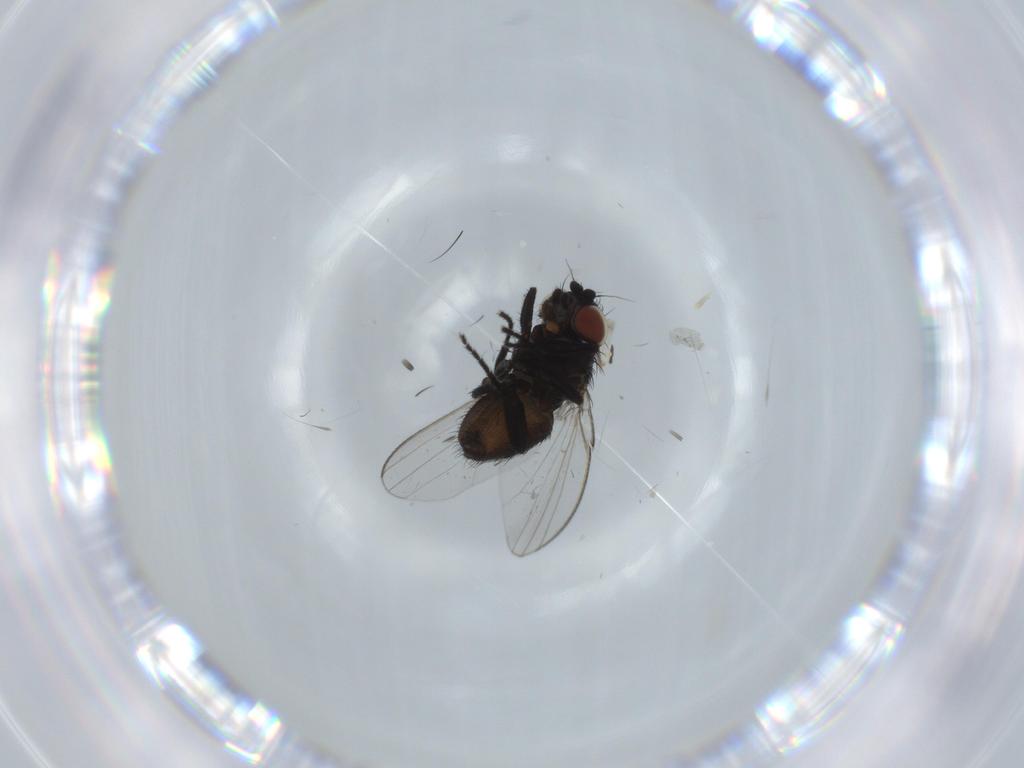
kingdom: Animalia
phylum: Arthropoda
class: Insecta
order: Diptera
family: Milichiidae
